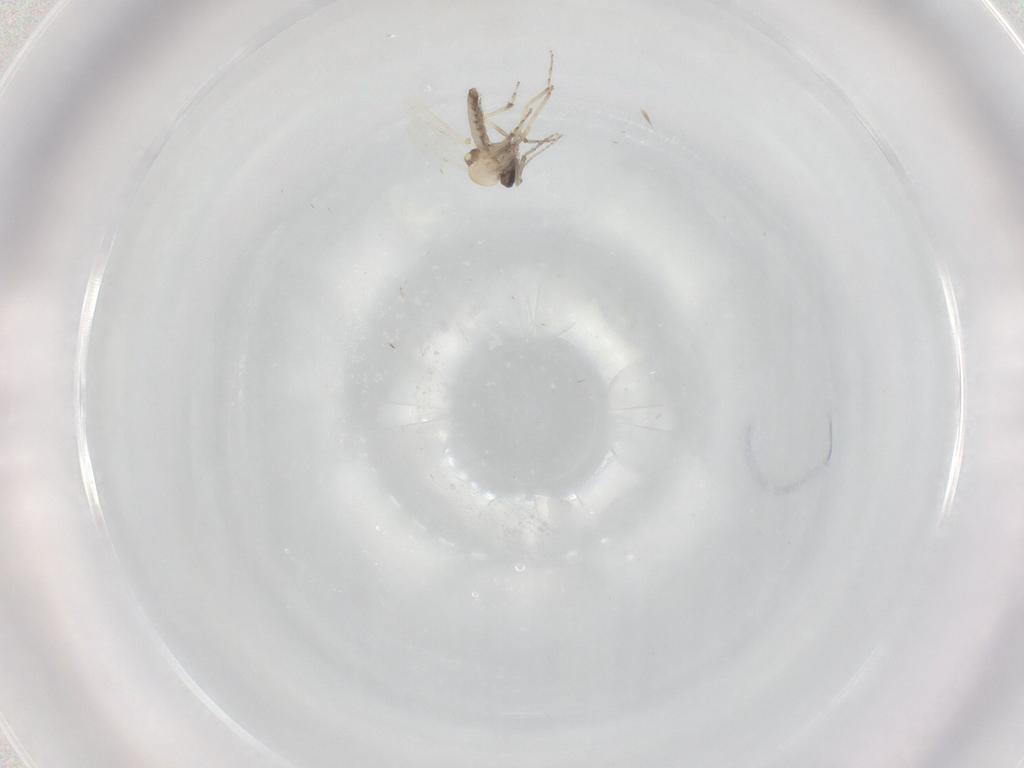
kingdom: Animalia
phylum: Arthropoda
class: Insecta
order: Diptera
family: Cecidomyiidae
